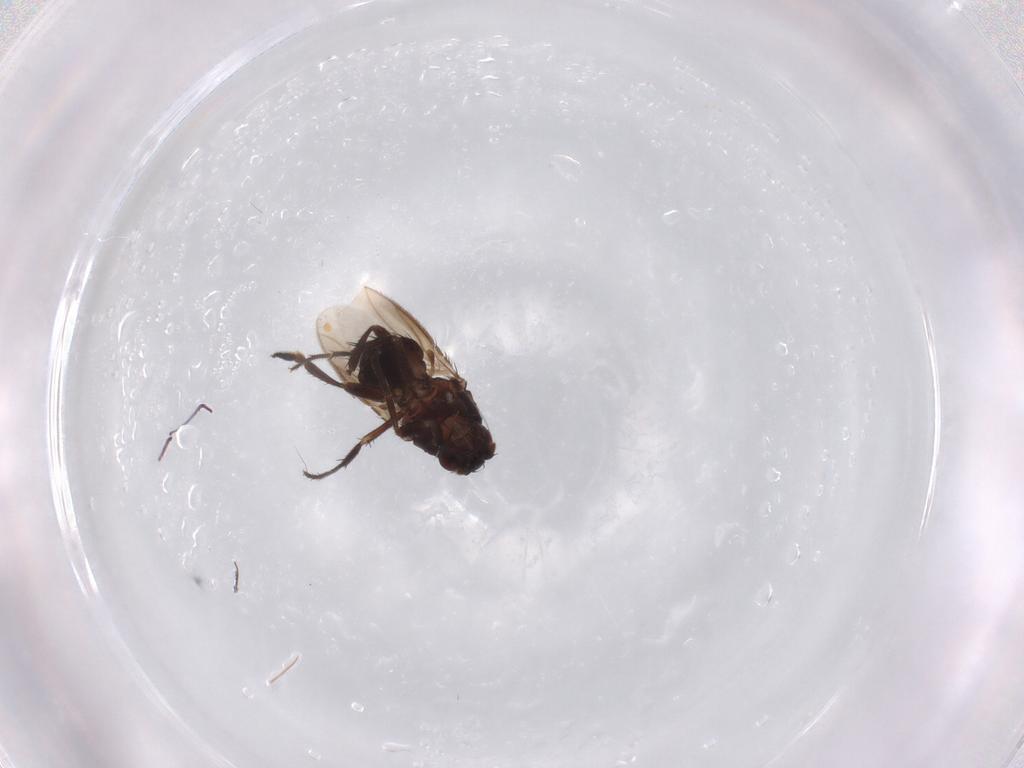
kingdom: Animalia
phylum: Arthropoda
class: Insecta
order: Diptera
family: Sphaeroceridae
